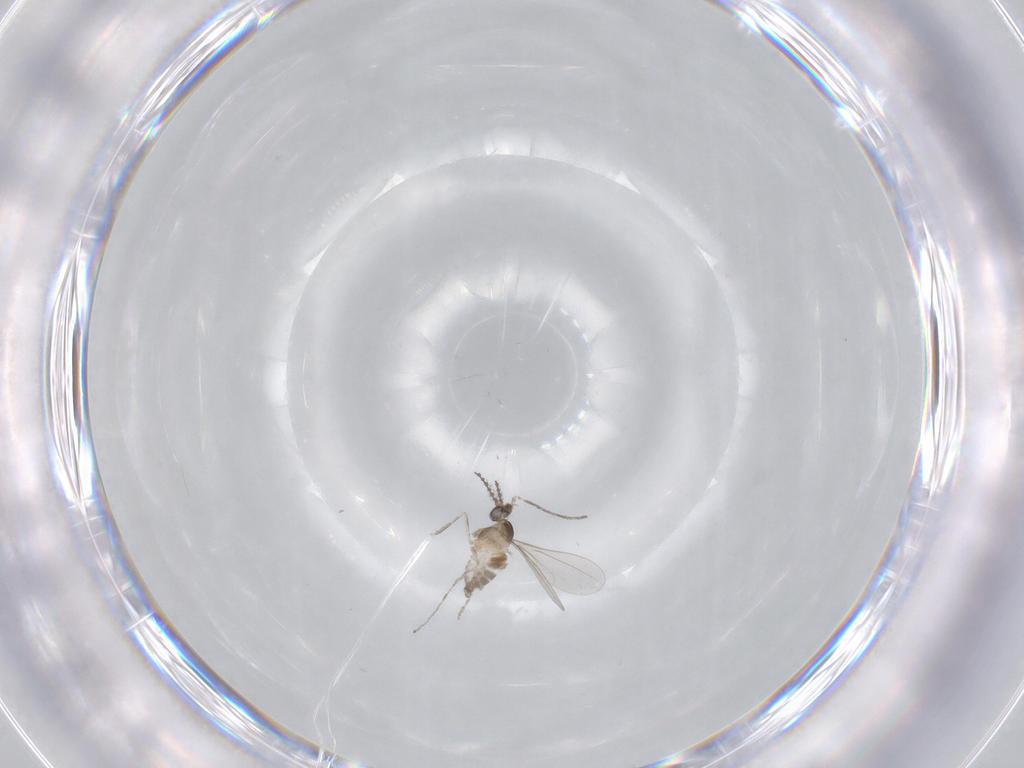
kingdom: Animalia
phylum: Arthropoda
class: Insecta
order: Diptera
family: Cecidomyiidae
